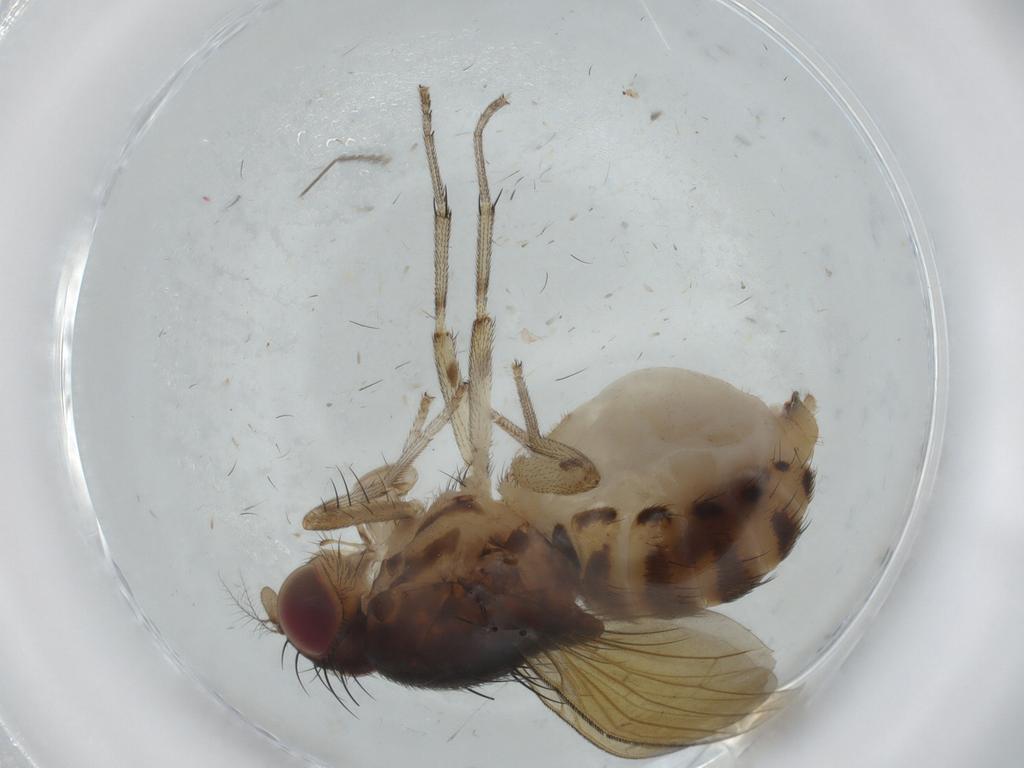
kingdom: Animalia
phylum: Arthropoda
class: Insecta
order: Diptera
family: Lauxaniidae
